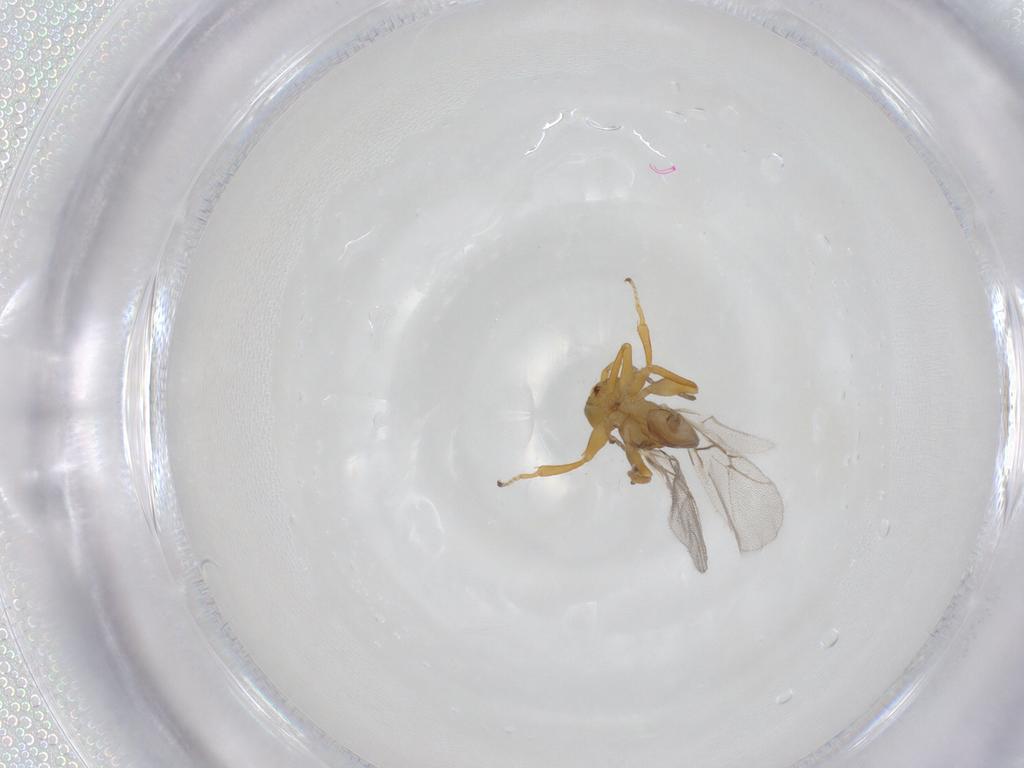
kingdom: Animalia
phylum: Arthropoda
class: Insecta
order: Hymenoptera
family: Cynipidae
